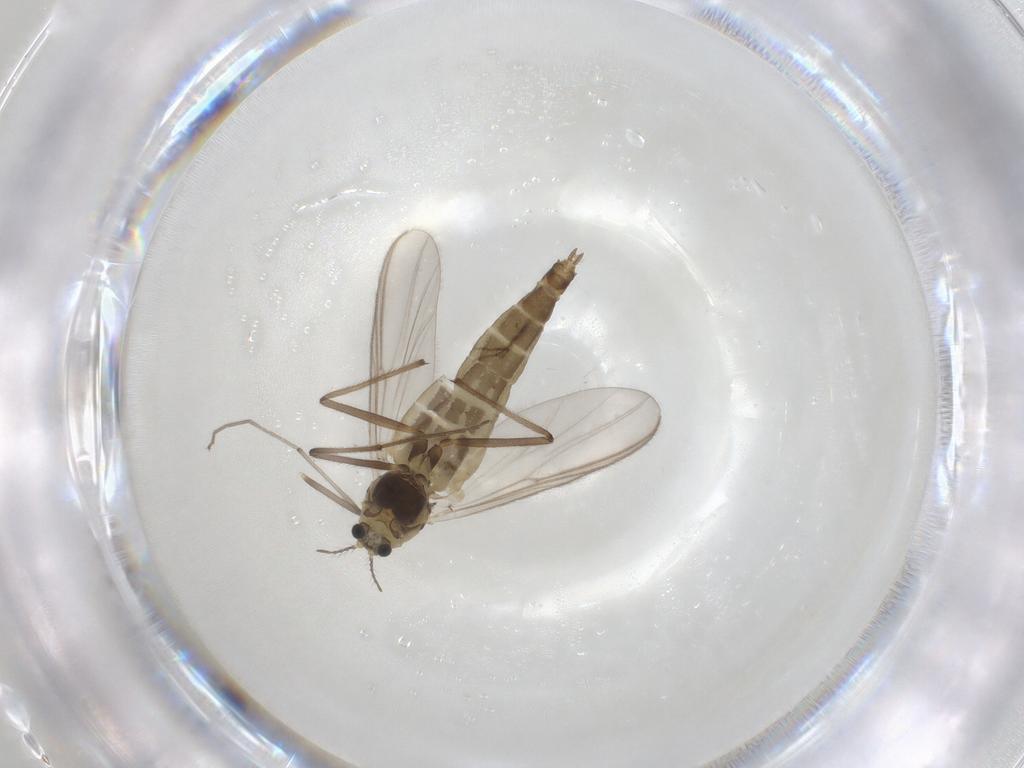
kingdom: Animalia
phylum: Arthropoda
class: Insecta
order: Diptera
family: Chironomidae
